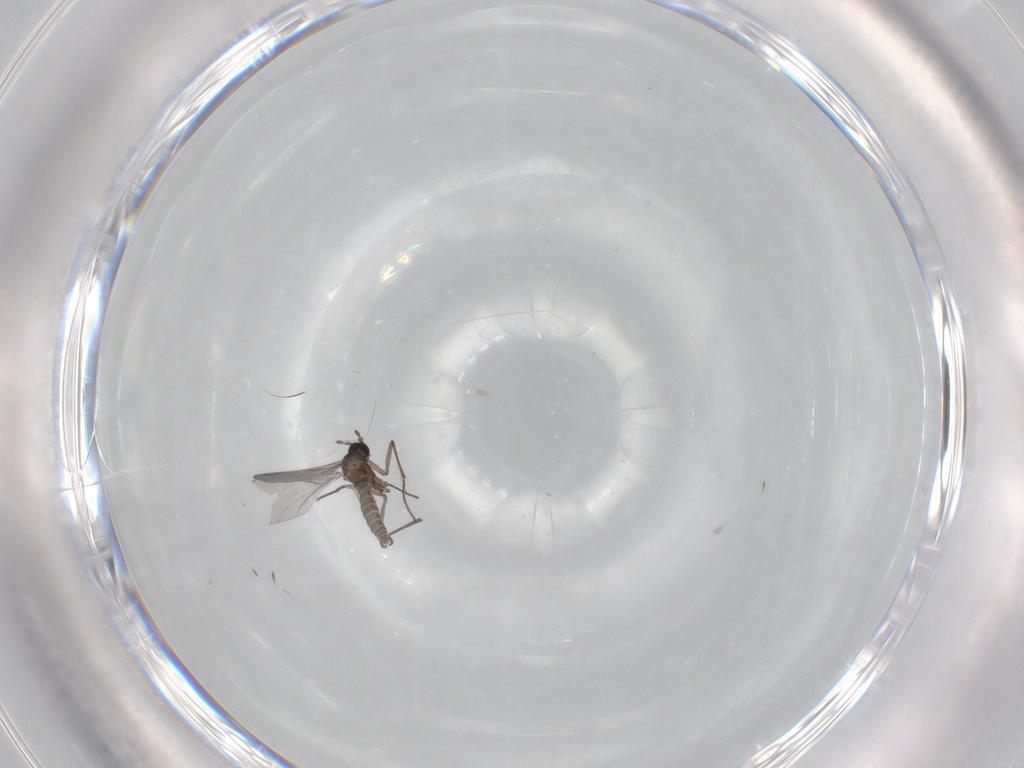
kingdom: Animalia
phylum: Arthropoda
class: Insecta
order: Diptera
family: Sciaridae
